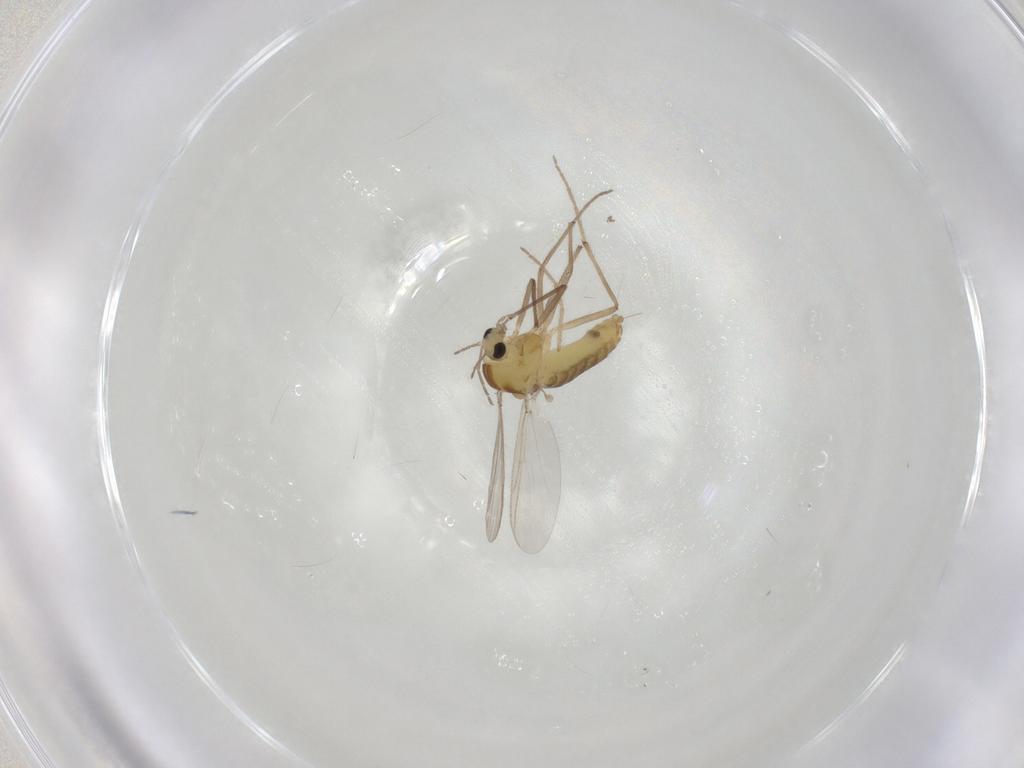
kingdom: Animalia
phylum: Arthropoda
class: Insecta
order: Diptera
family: Chironomidae
